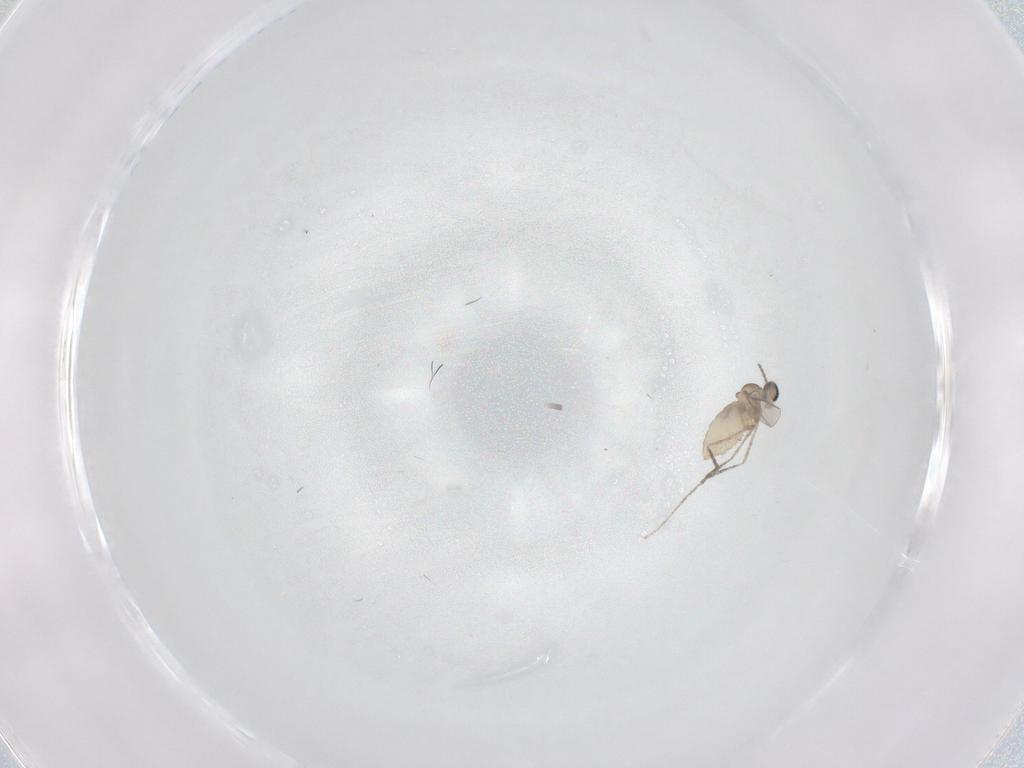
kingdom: Animalia
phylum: Arthropoda
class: Insecta
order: Diptera
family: Cecidomyiidae
